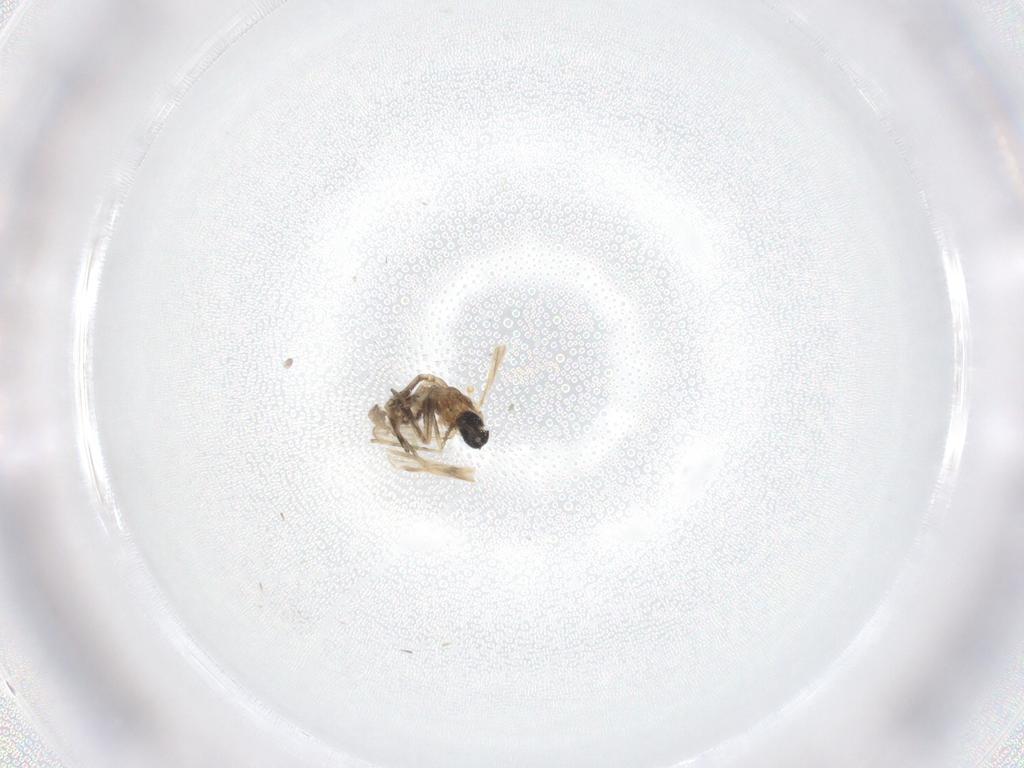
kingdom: Animalia
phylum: Arthropoda
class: Insecta
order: Diptera
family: Cecidomyiidae
